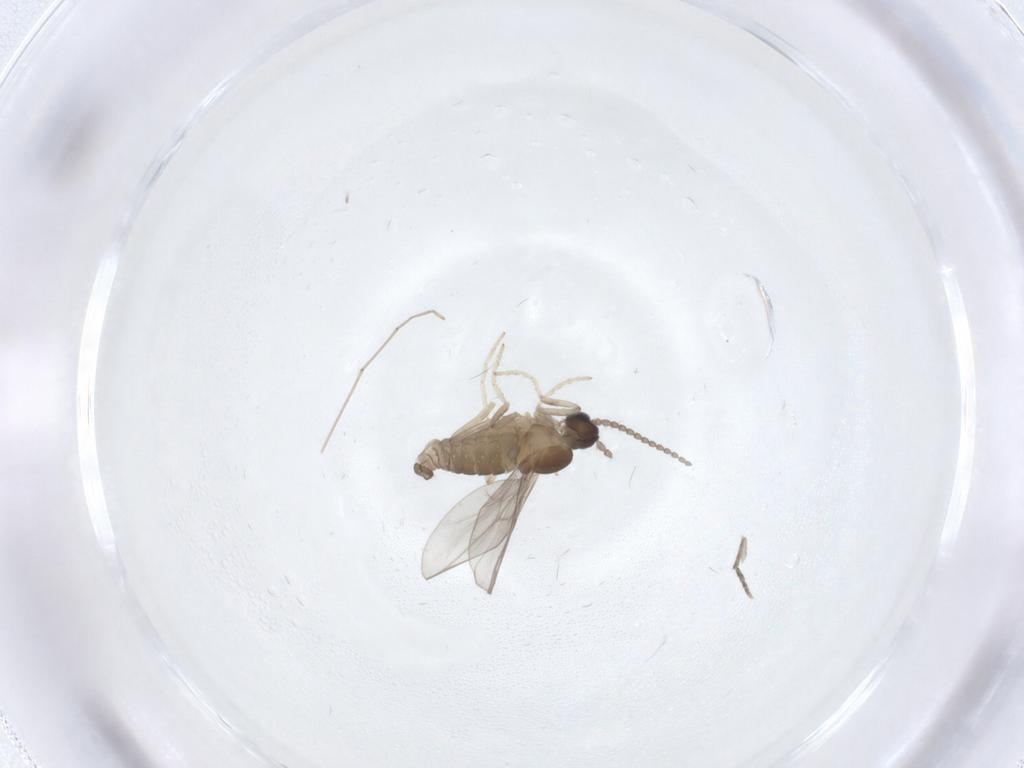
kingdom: Animalia
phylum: Arthropoda
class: Insecta
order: Diptera
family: Cecidomyiidae
